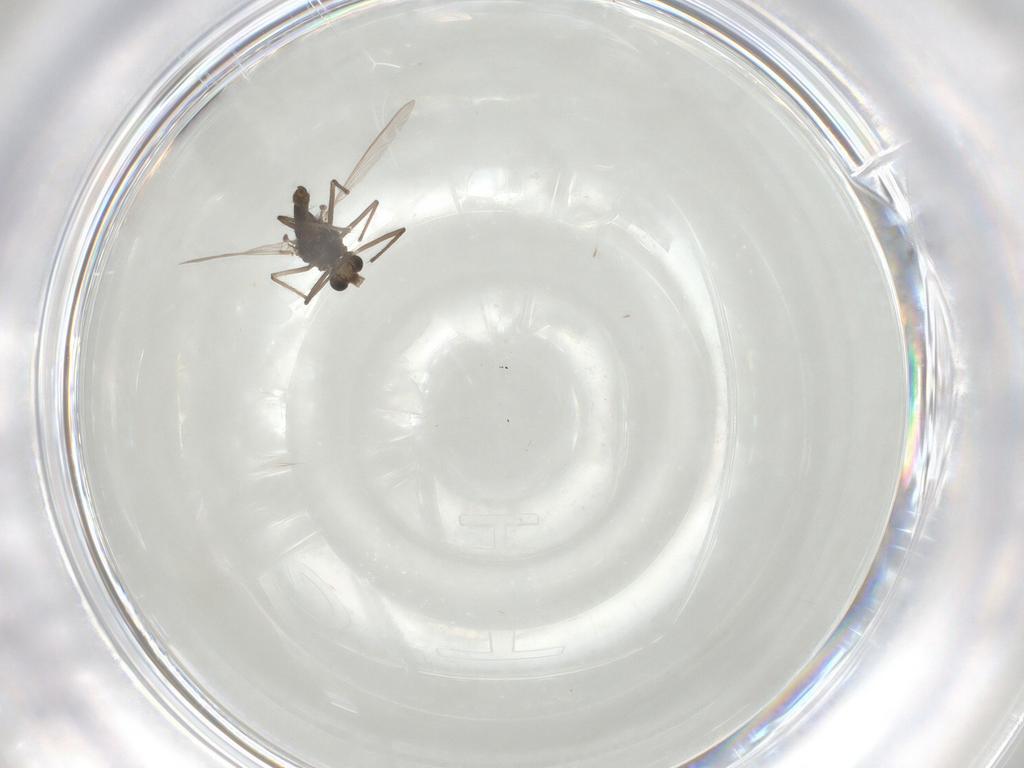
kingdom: Animalia
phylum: Arthropoda
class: Insecta
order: Diptera
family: Chironomidae
